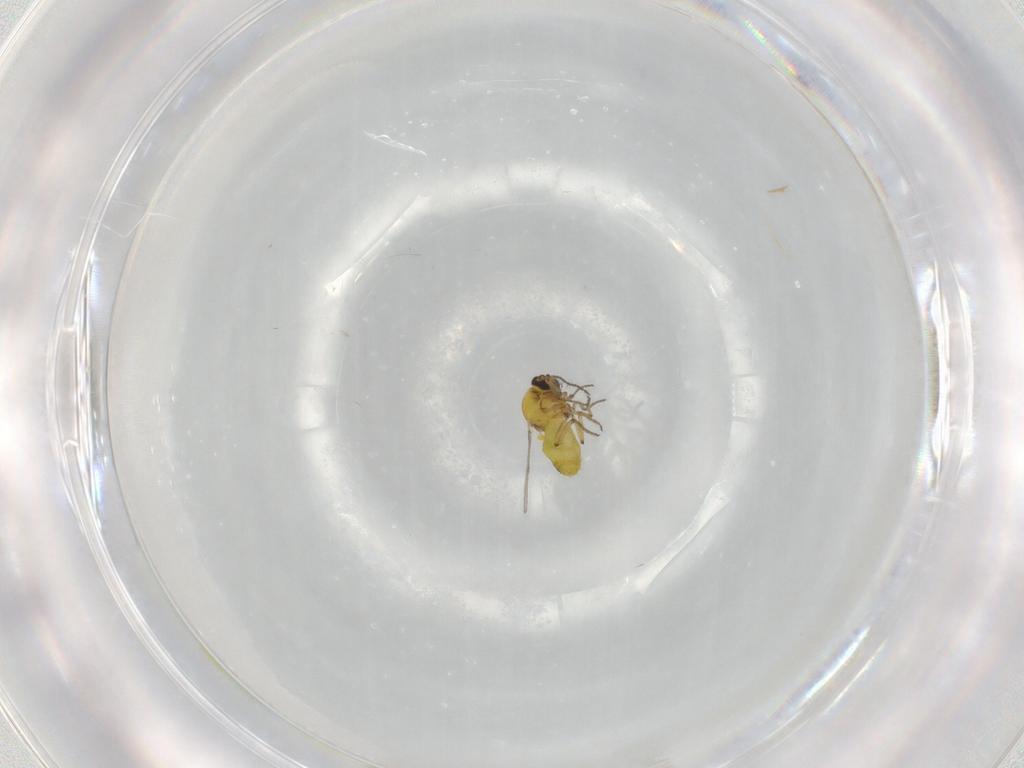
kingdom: Animalia
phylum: Arthropoda
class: Insecta
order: Diptera
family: Ceratopogonidae
